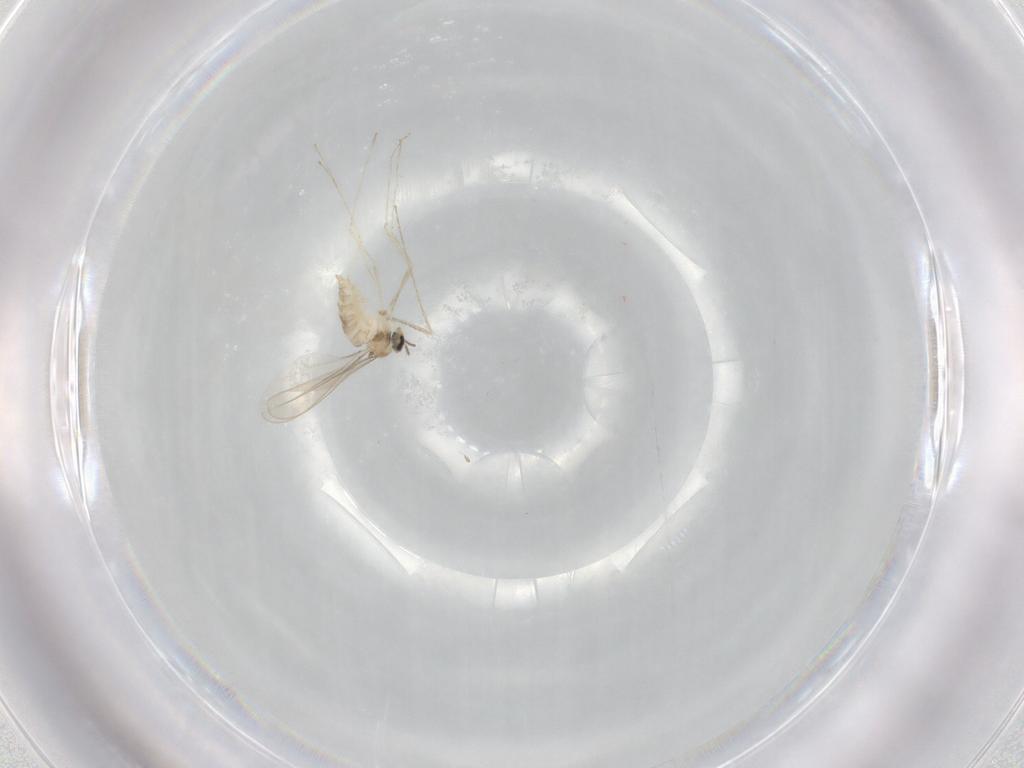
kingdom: Animalia
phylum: Arthropoda
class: Insecta
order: Diptera
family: Cecidomyiidae
